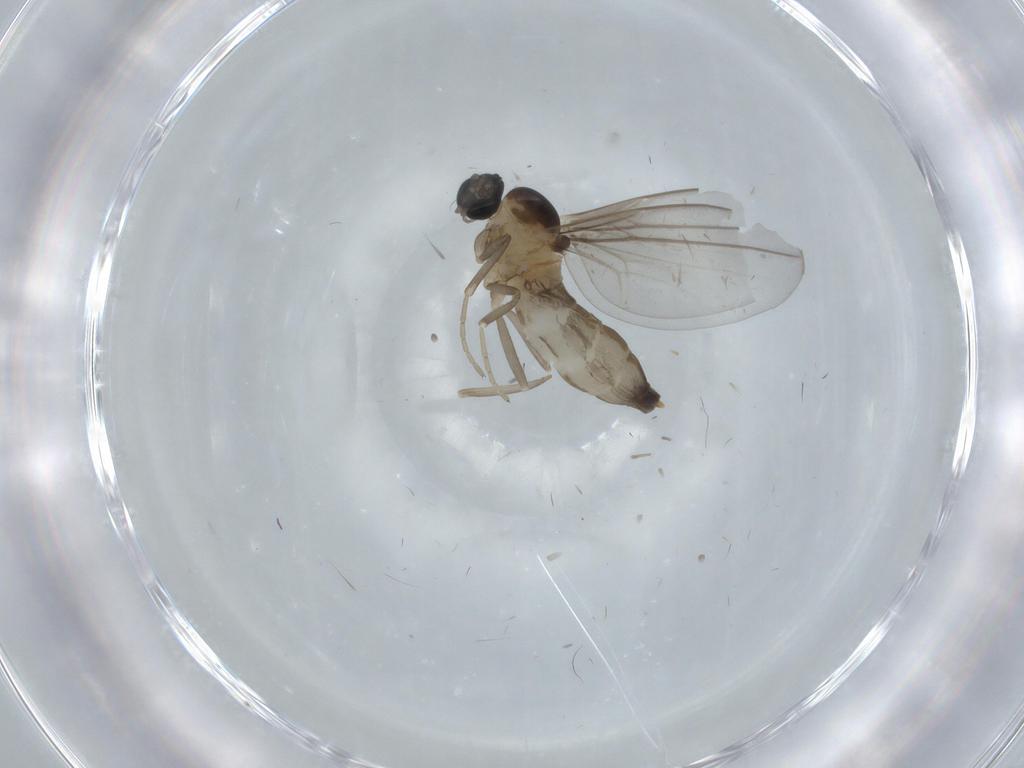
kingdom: Animalia
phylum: Arthropoda
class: Insecta
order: Diptera
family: Cecidomyiidae
